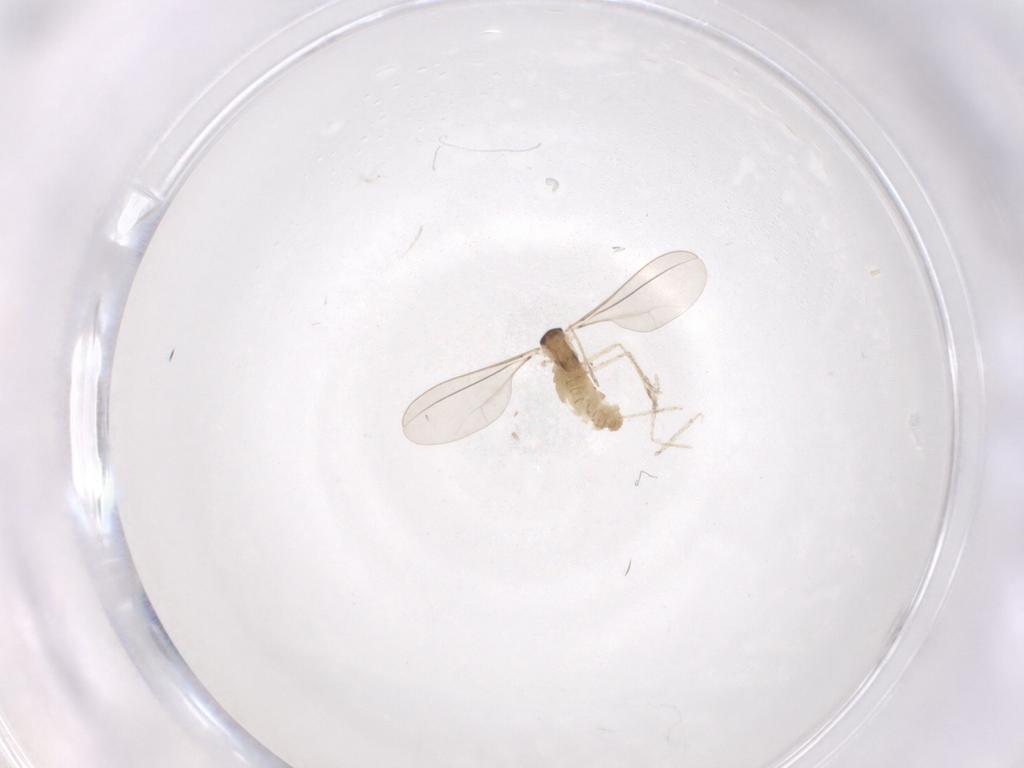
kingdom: Animalia
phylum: Arthropoda
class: Insecta
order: Diptera
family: Cecidomyiidae
